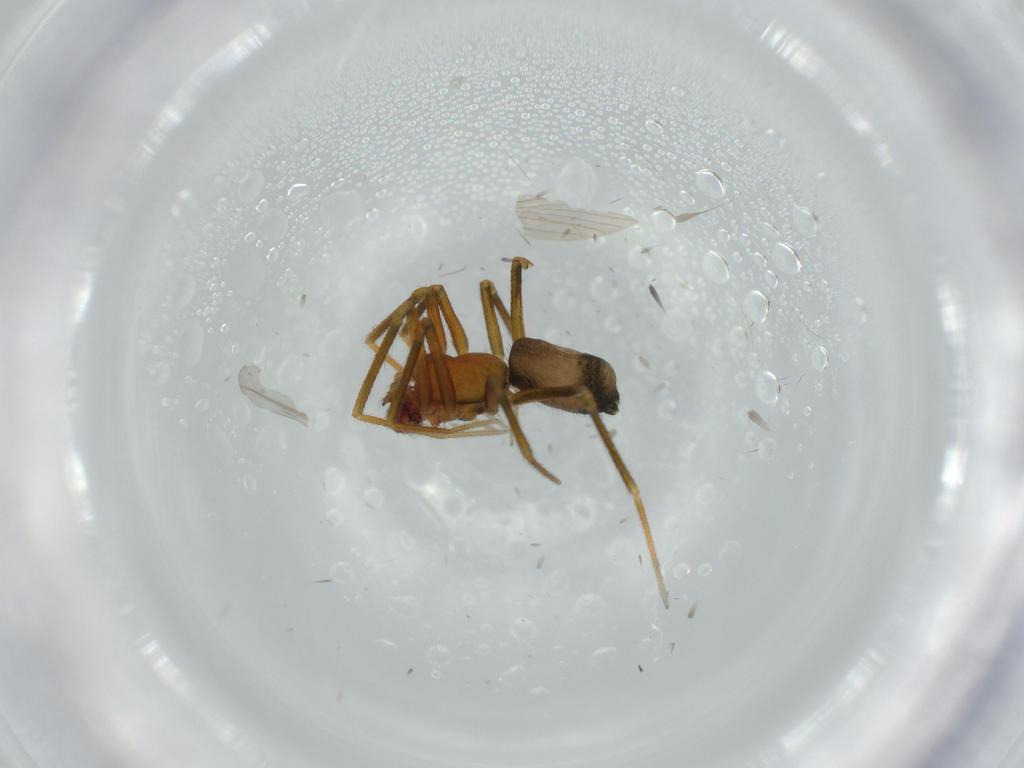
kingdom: Animalia
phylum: Arthropoda
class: Arachnida
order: Araneae
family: Linyphiidae
